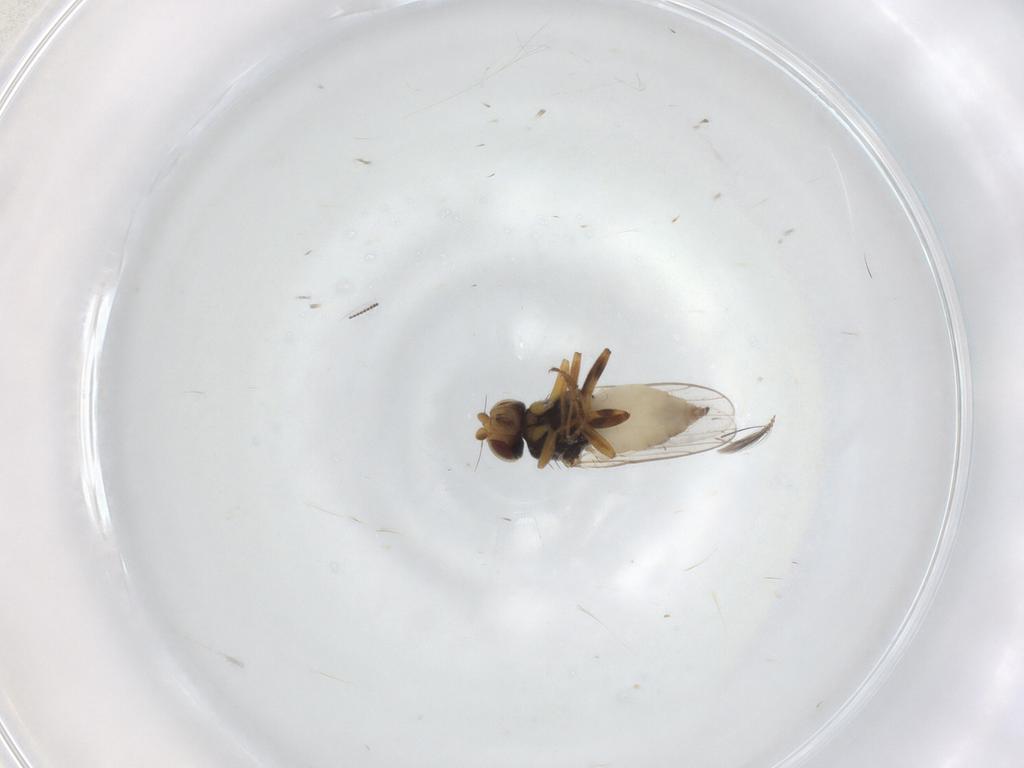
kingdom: Animalia
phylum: Arthropoda
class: Insecta
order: Diptera
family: Chloropidae
